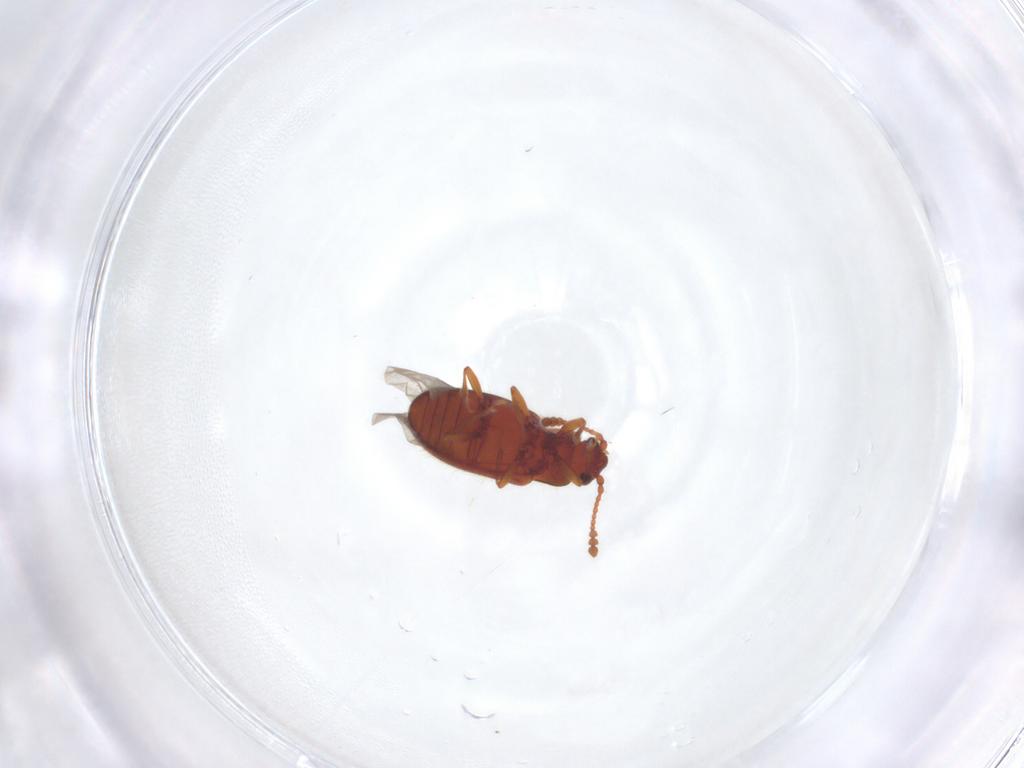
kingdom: Animalia
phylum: Arthropoda
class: Insecta
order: Coleoptera
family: Cryptophagidae
